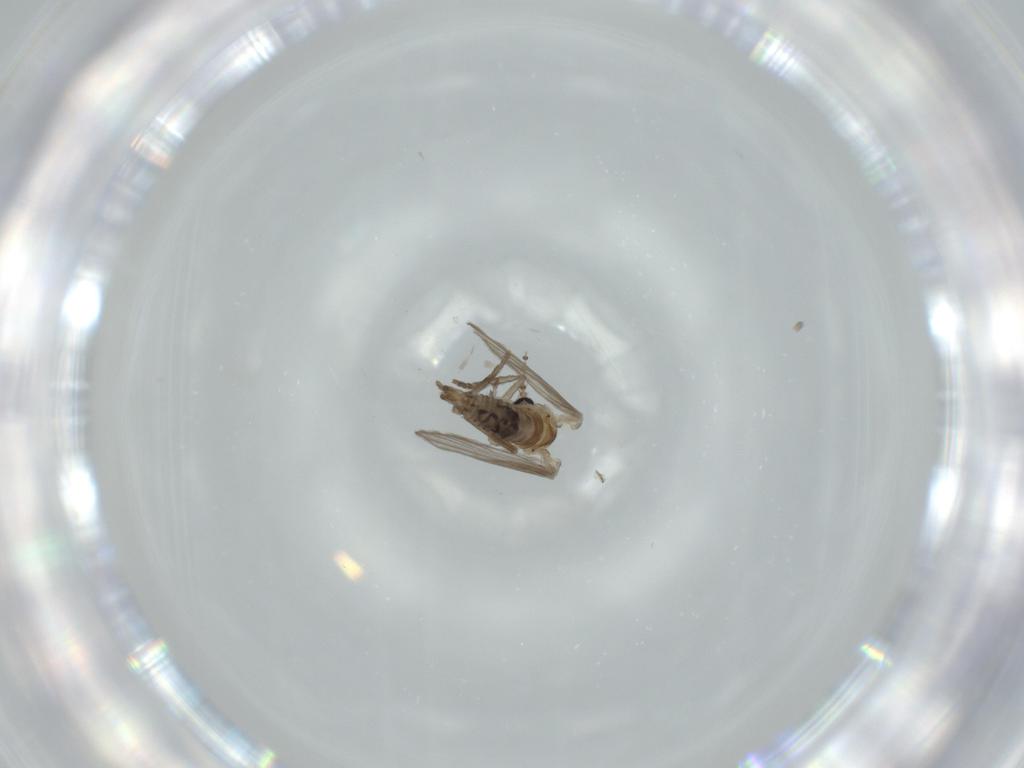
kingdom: Animalia
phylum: Arthropoda
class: Insecta
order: Diptera
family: Psychodidae
